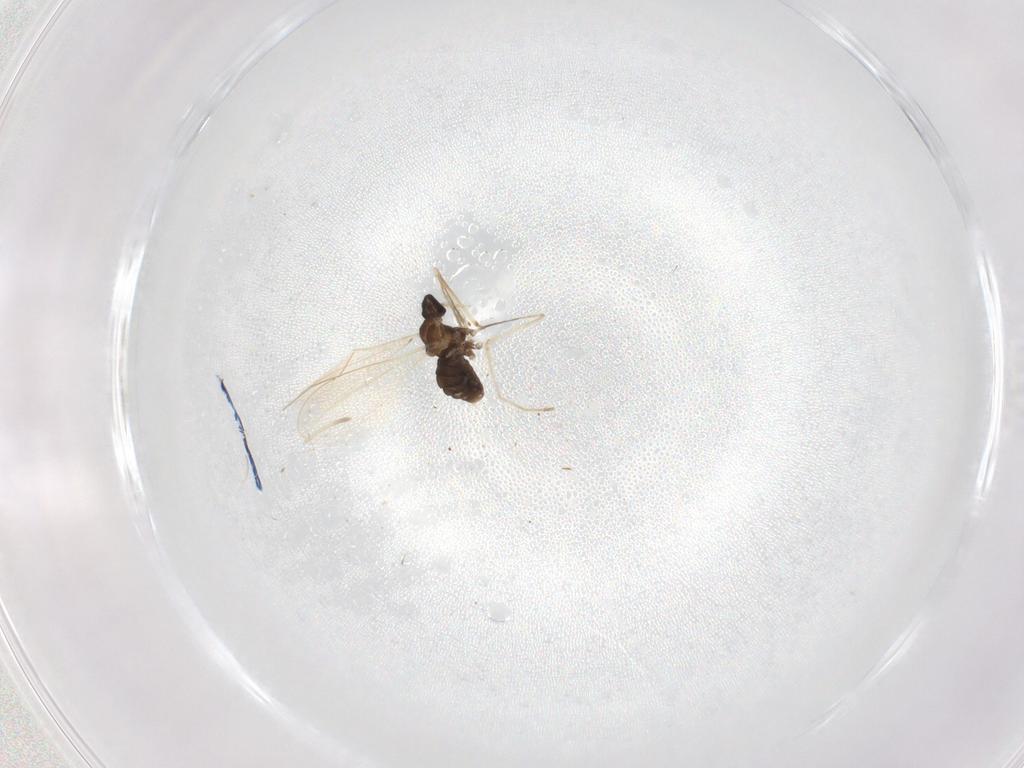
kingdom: Animalia
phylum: Arthropoda
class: Insecta
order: Diptera
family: Cecidomyiidae
